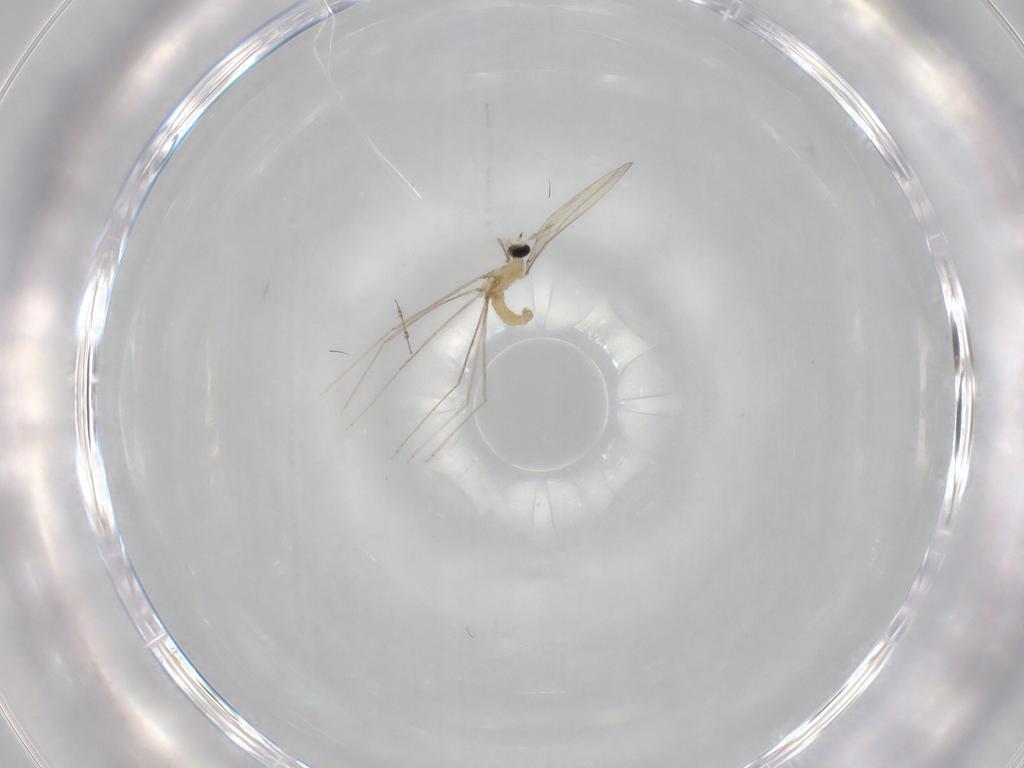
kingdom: Animalia
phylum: Arthropoda
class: Insecta
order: Diptera
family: Cecidomyiidae
